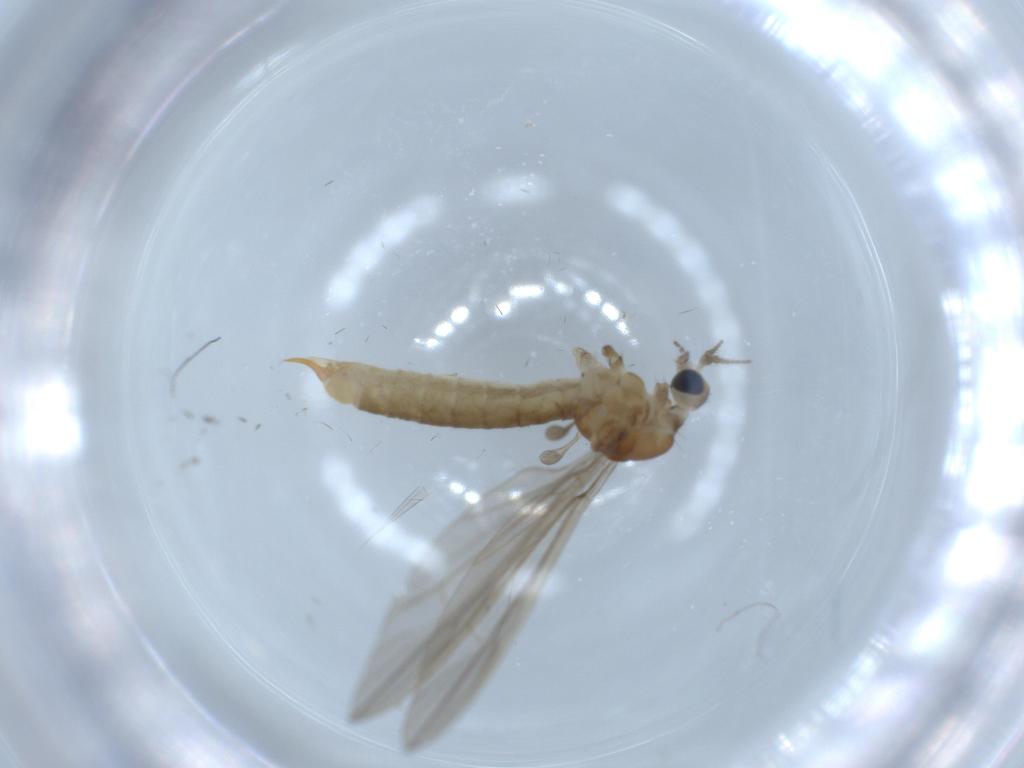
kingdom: Animalia
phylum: Arthropoda
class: Insecta
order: Diptera
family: Limoniidae
